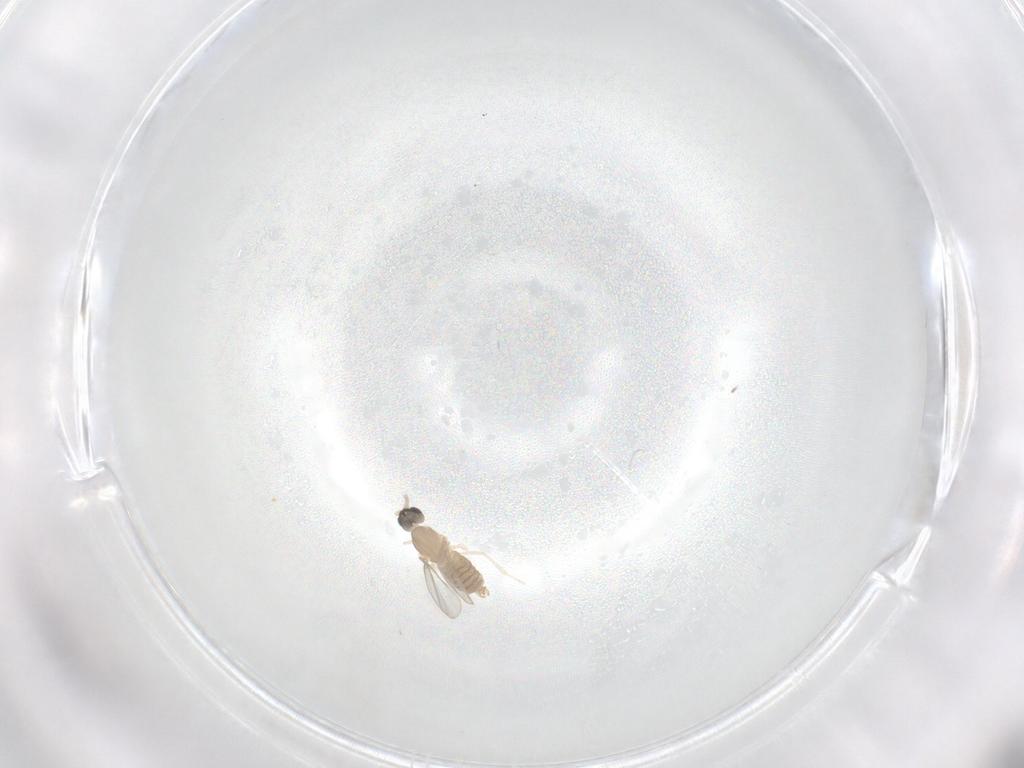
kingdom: Animalia
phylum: Arthropoda
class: Insecta
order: Diptera
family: Cecidomyiidae
